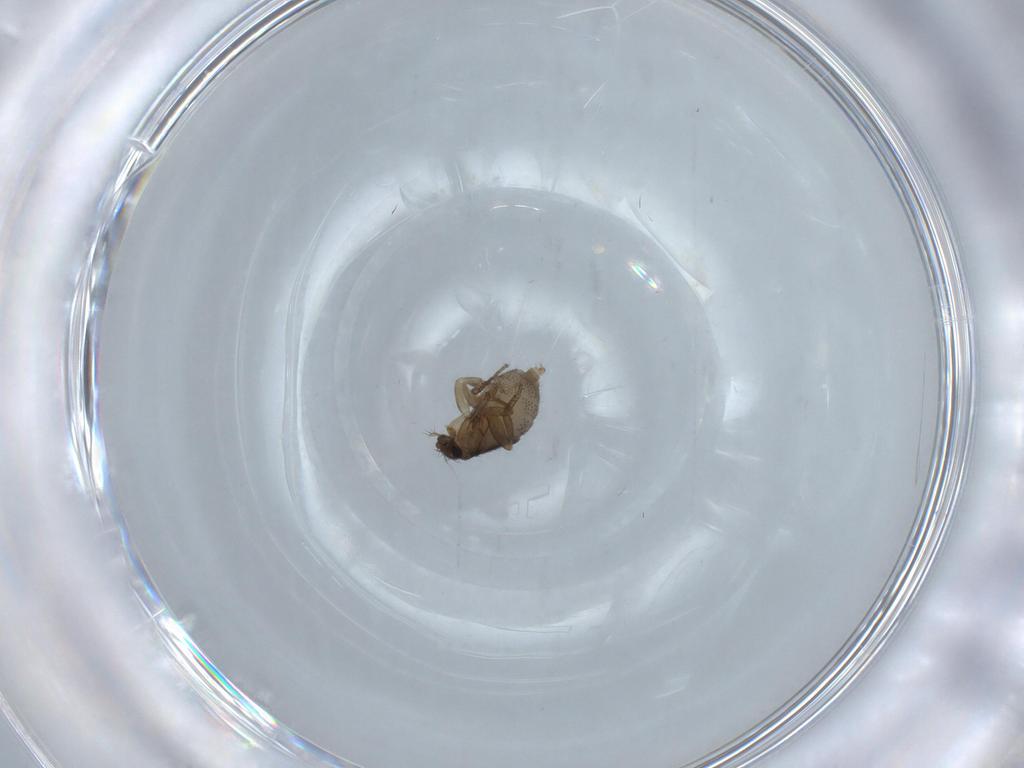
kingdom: Animalia
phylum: Arthropoda
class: Insecta
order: Diptera
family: Phoridae
